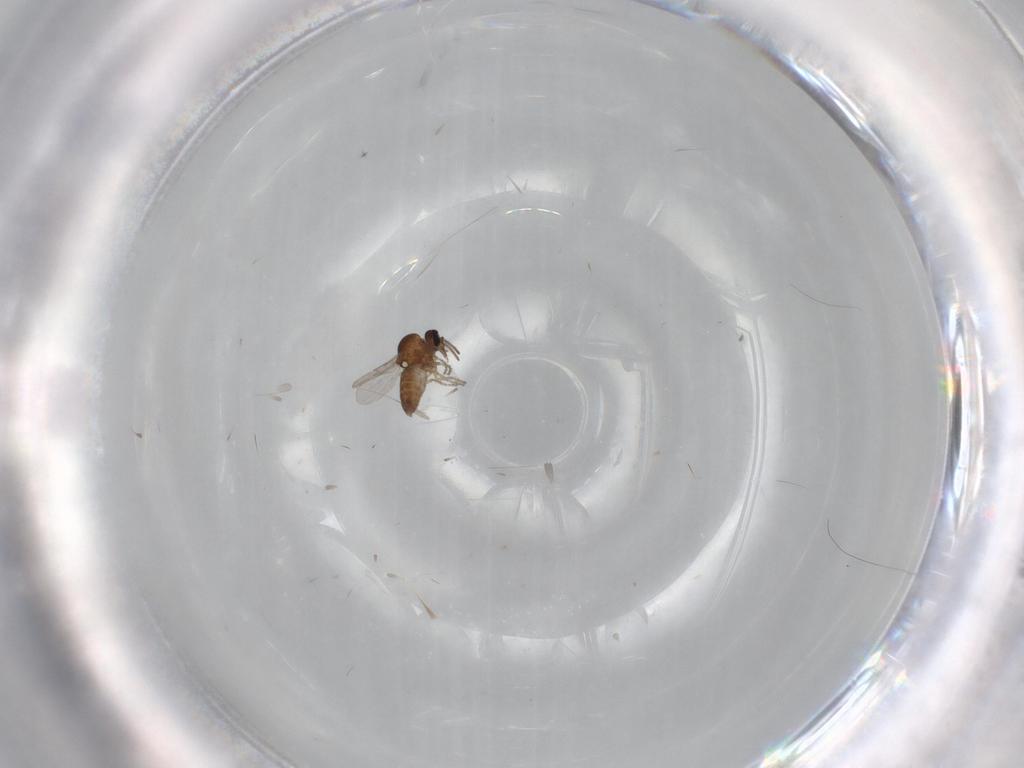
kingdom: Animalia
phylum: Arthropoda
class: Insecta
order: Diptera
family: Ceratopogonidae
